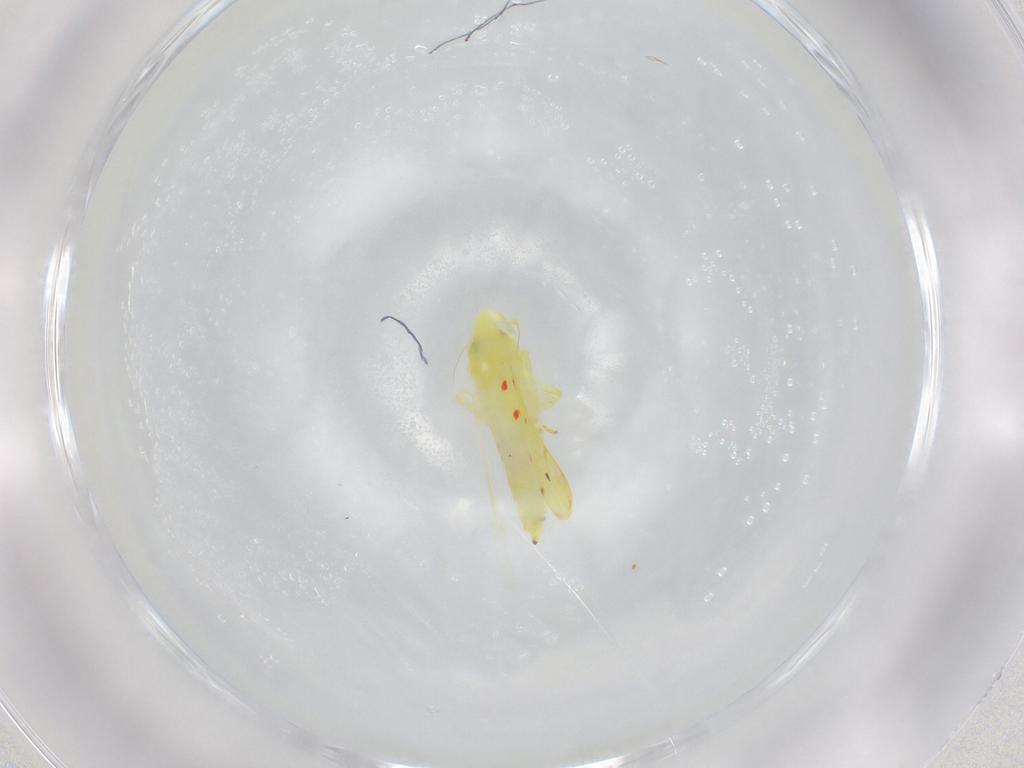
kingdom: Animalia
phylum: Arthropoda
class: Insecta
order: Hemiptera
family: Cicadellidae
